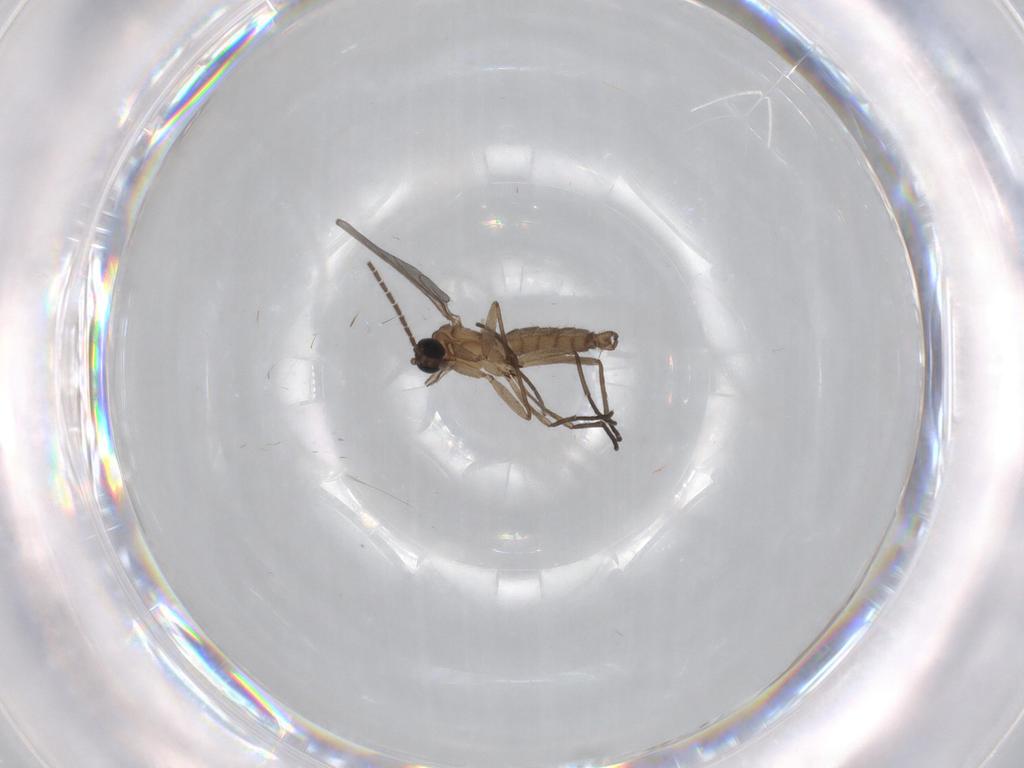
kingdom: Animalia
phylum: Arthropoda
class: Insecta
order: Diptera
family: Sciaridae
